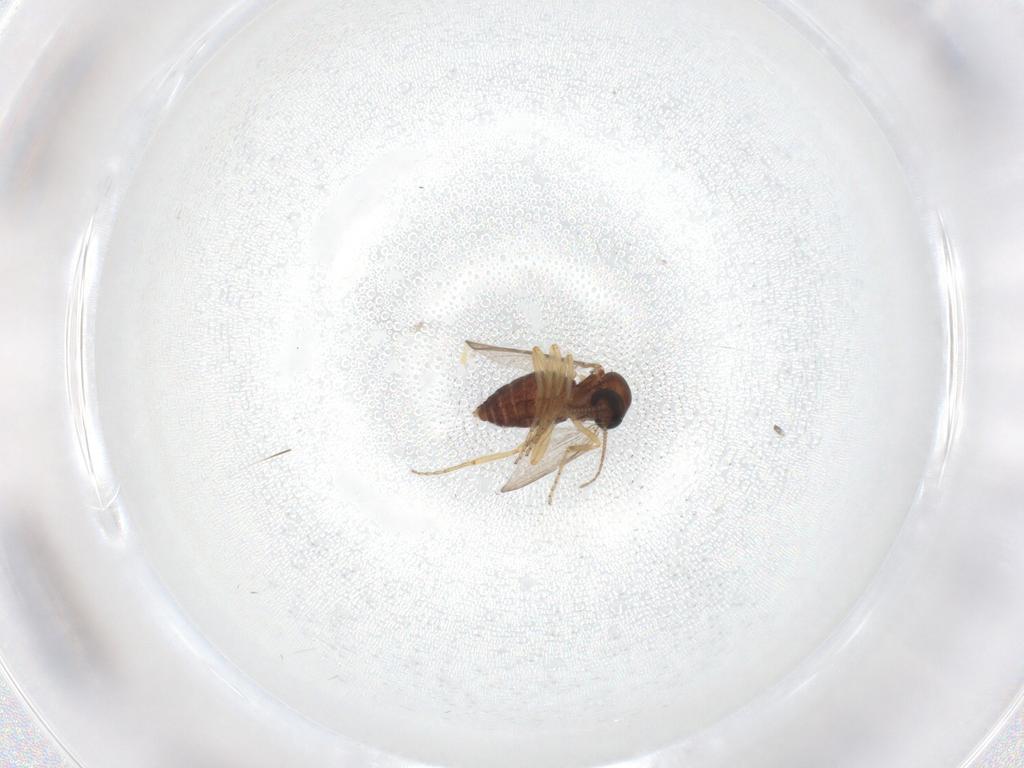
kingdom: Animalia
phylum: Arthropoda
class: Insecta
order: Diptera
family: Ceratopogonidae
